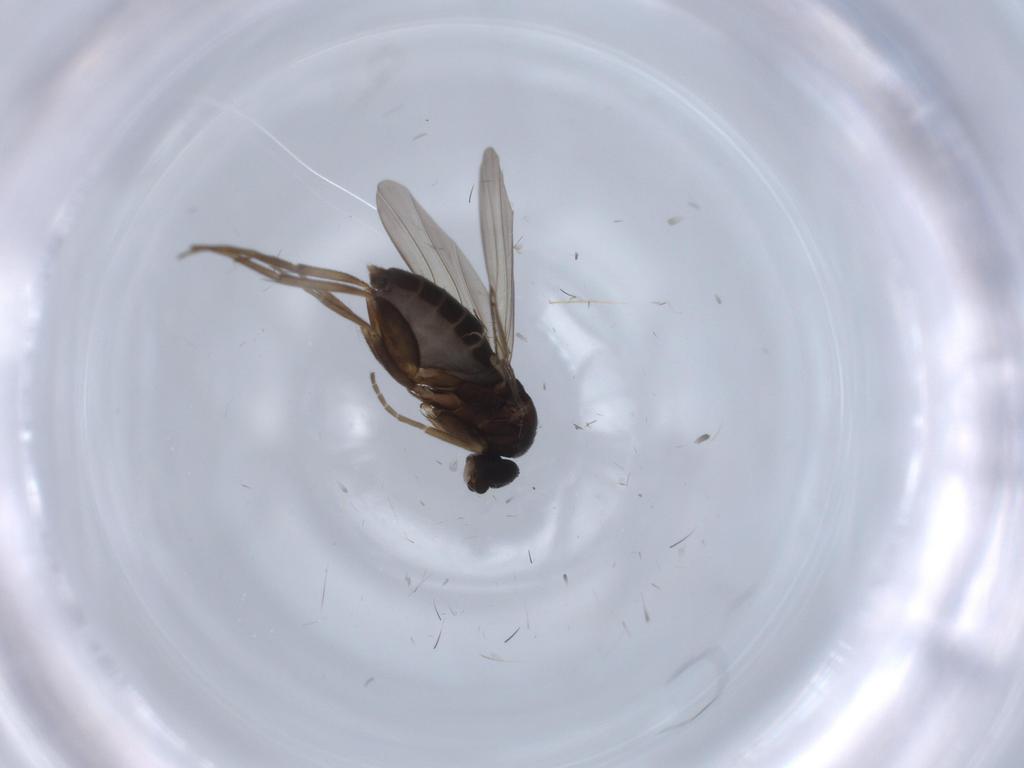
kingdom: Animalia
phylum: Arthropoda
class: Insecta
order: Diptera
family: Phoridae
